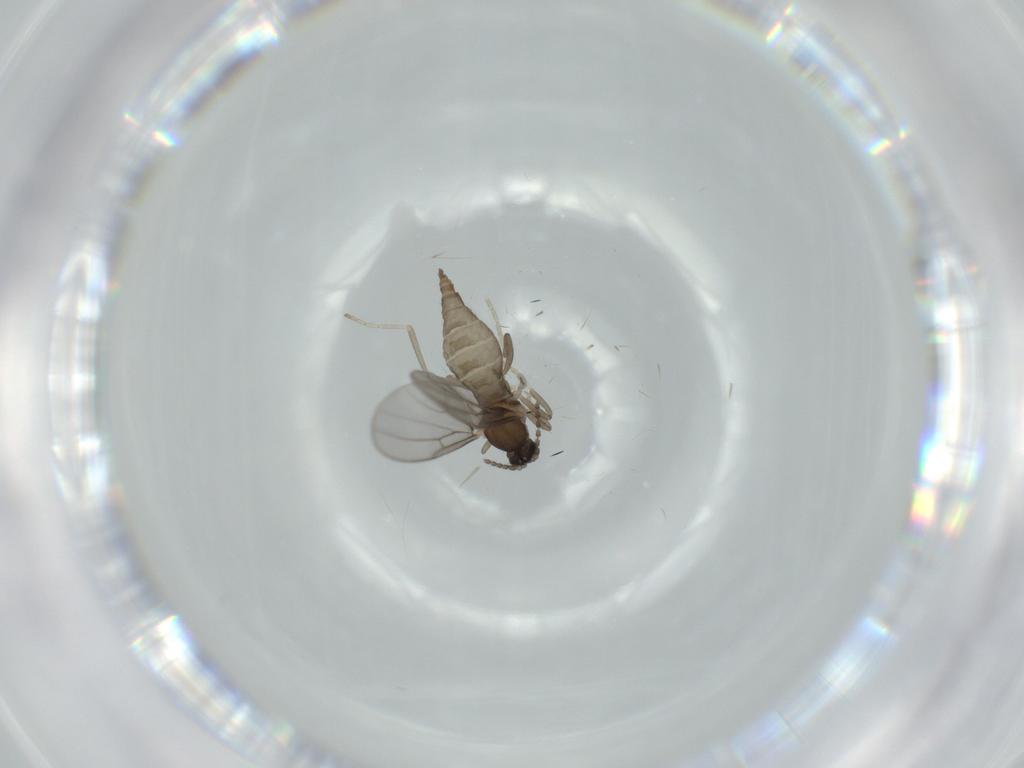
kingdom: Animalia
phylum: Arthropoda
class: Insecta
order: Diptera
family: Cecidomyiidae
